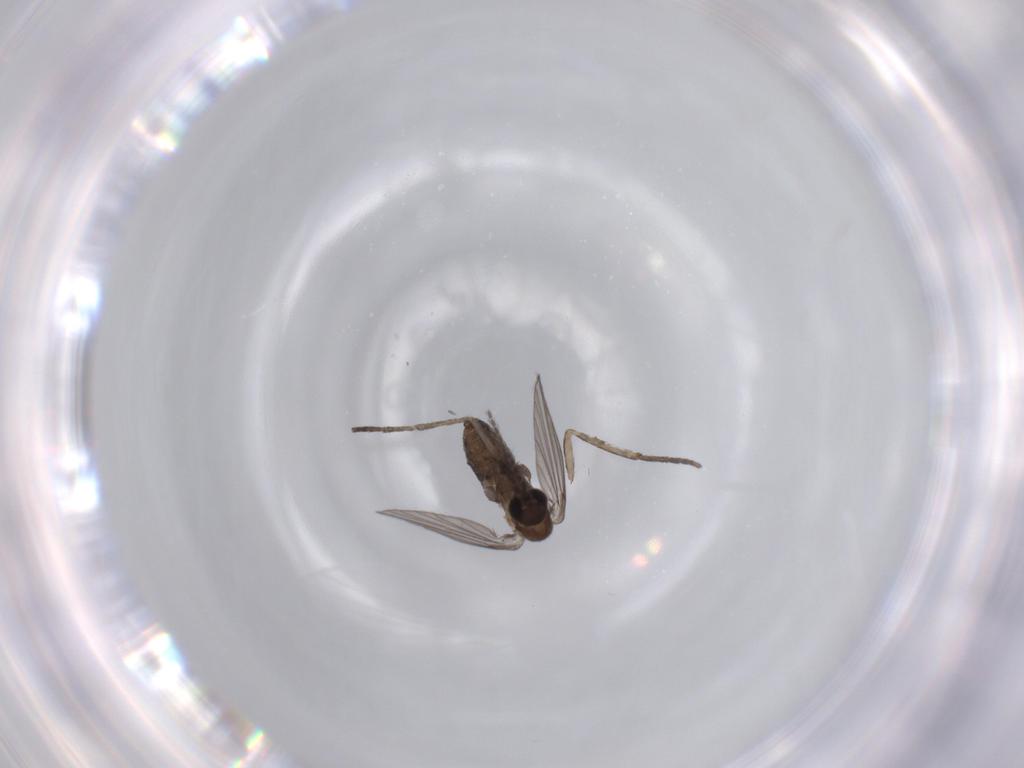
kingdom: Animalia
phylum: Arthropoda
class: Insecta
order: Diptera
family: Psychodidae
